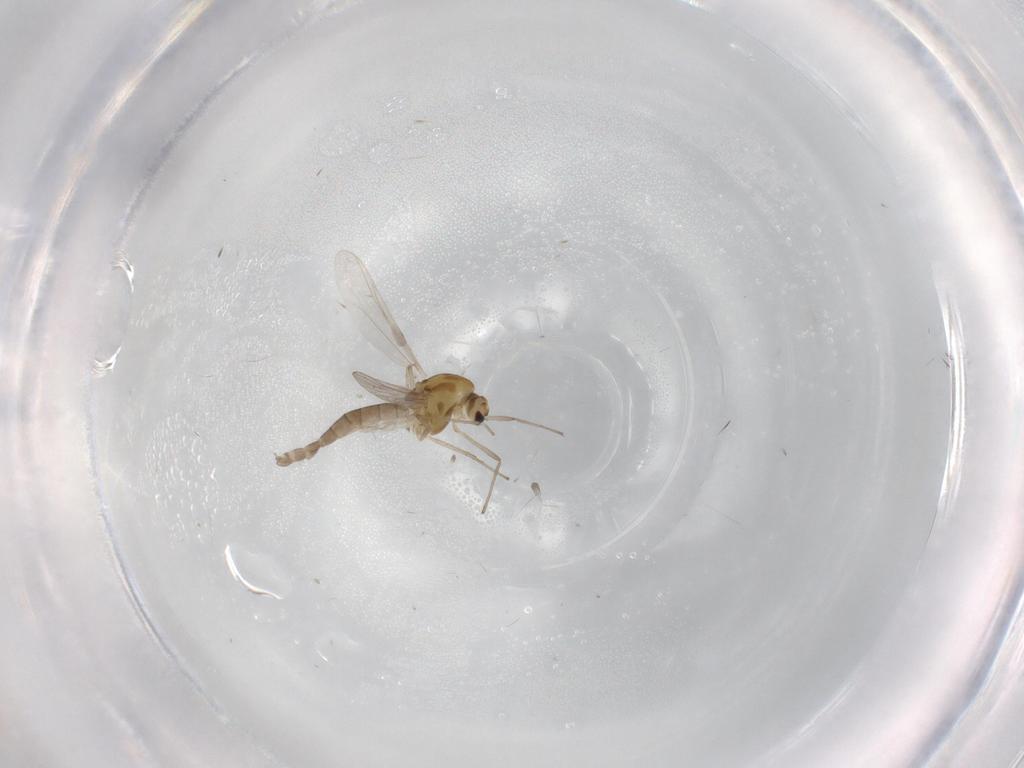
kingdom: Animalia
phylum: Arthropoda
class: Insecta
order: Diptera
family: Chironomidae
